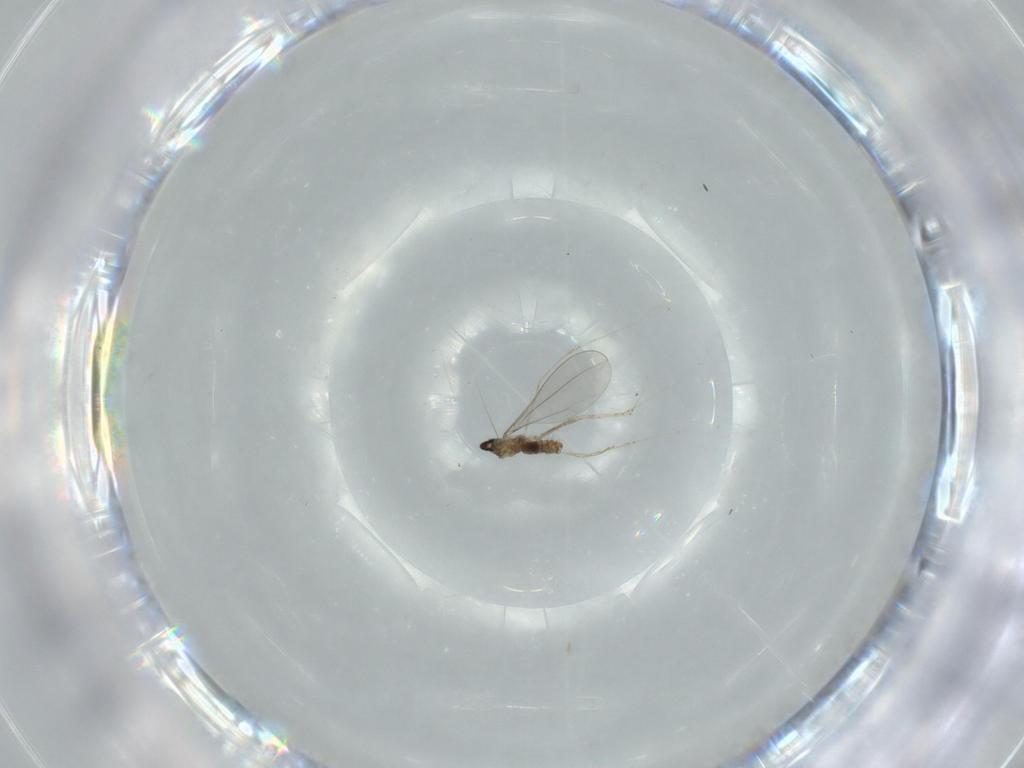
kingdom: Animalia
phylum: Arthropoda
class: Insecta
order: Diptera
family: Cecidomyiidae
